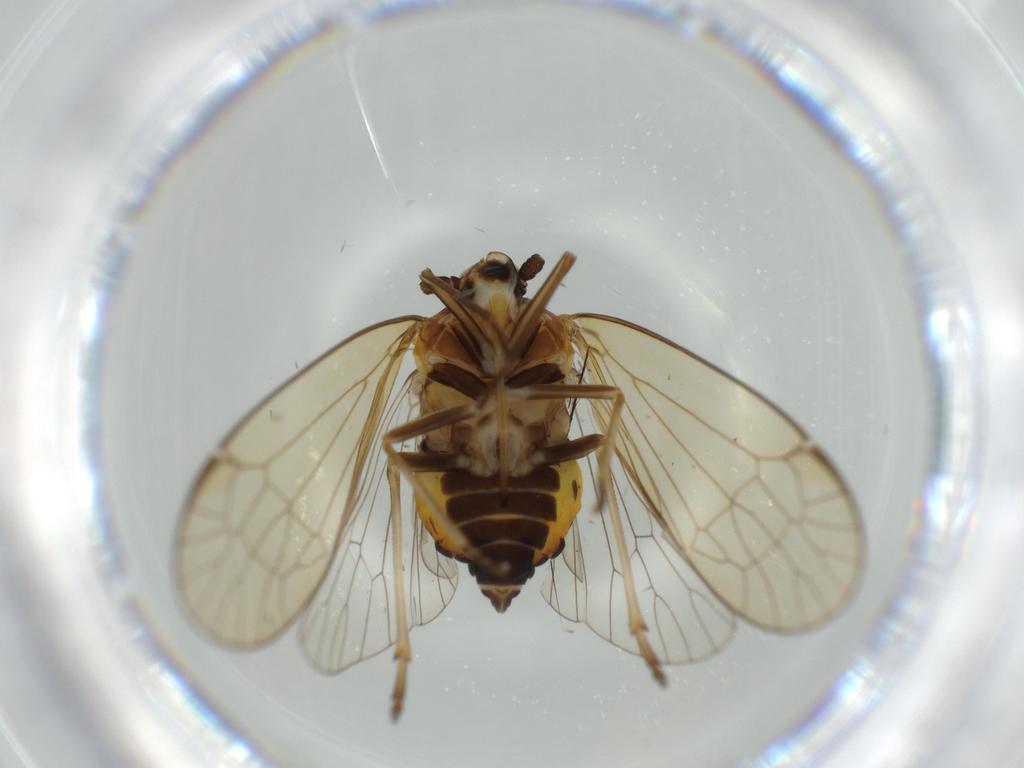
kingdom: Animalia
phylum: Arthropoda
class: Insecta
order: Hemiptera
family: Kinnaridae
